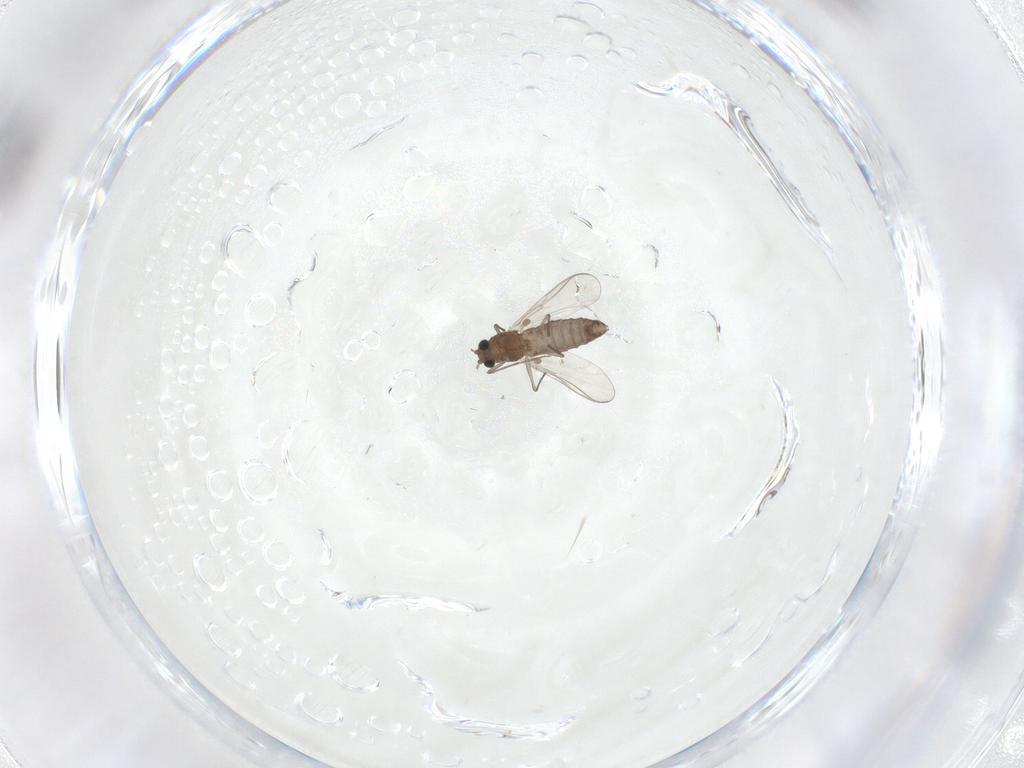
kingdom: Animalia
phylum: Arthropoda
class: Insecta
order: Diptera
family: Chironomidae
